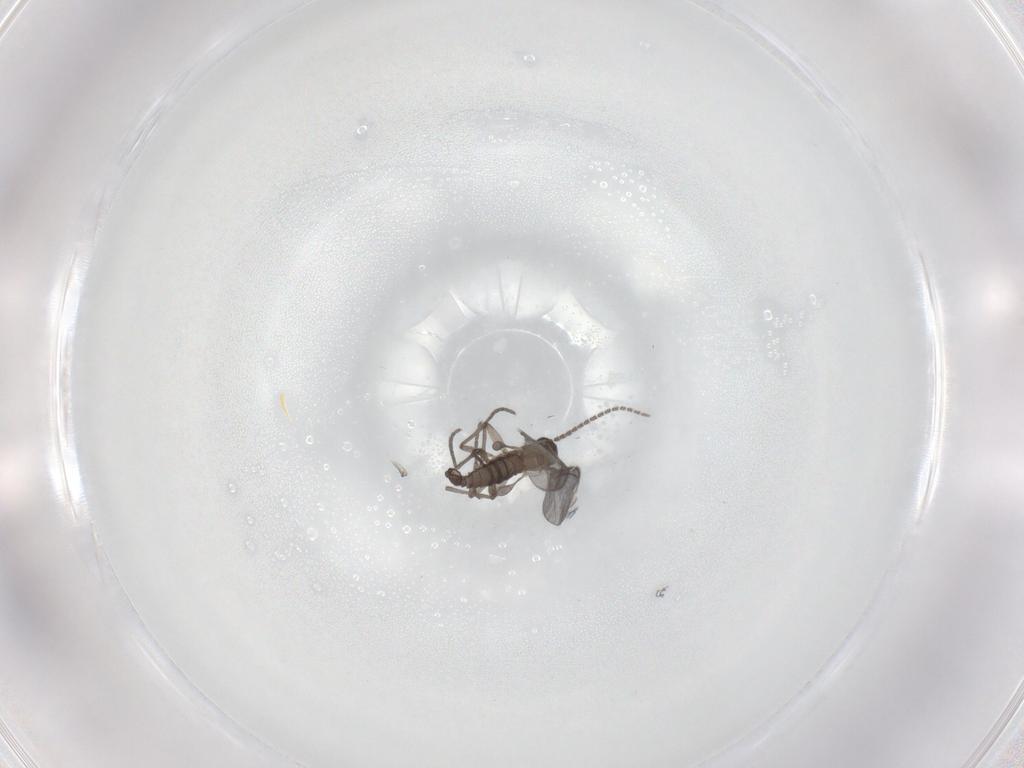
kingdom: Animalia
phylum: Arthropoda
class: Insecta
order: Diptera
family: Sciaridae
